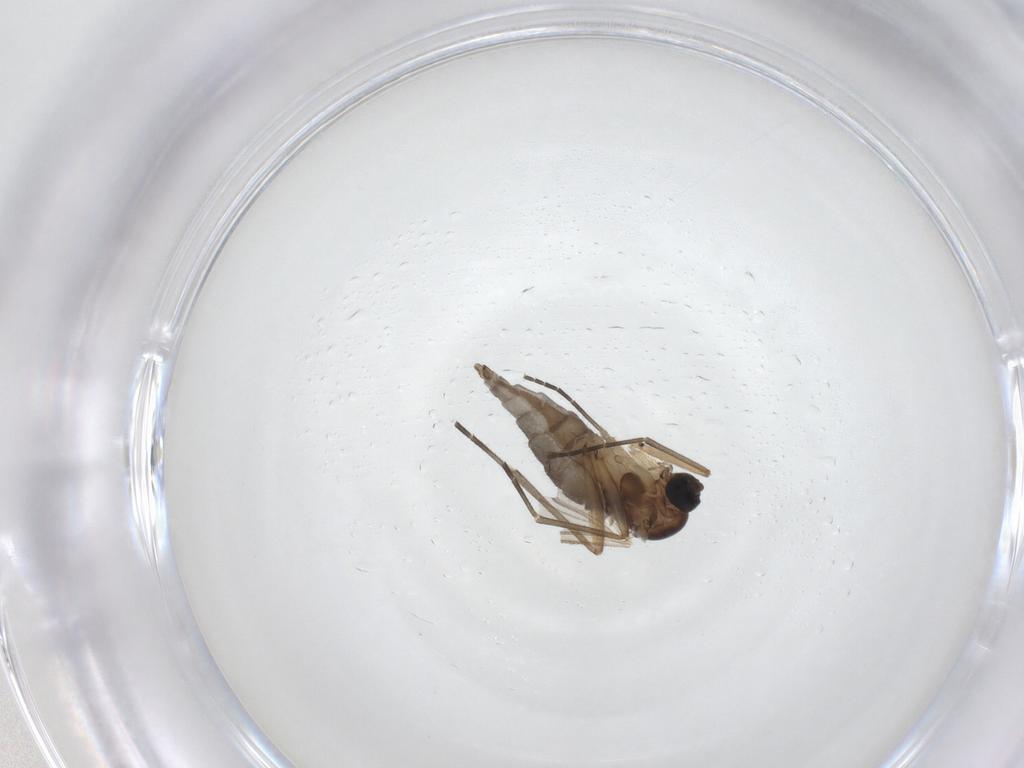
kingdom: Animalia
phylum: Arthropoda
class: Insecta
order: Diptera
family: Sciaridae
